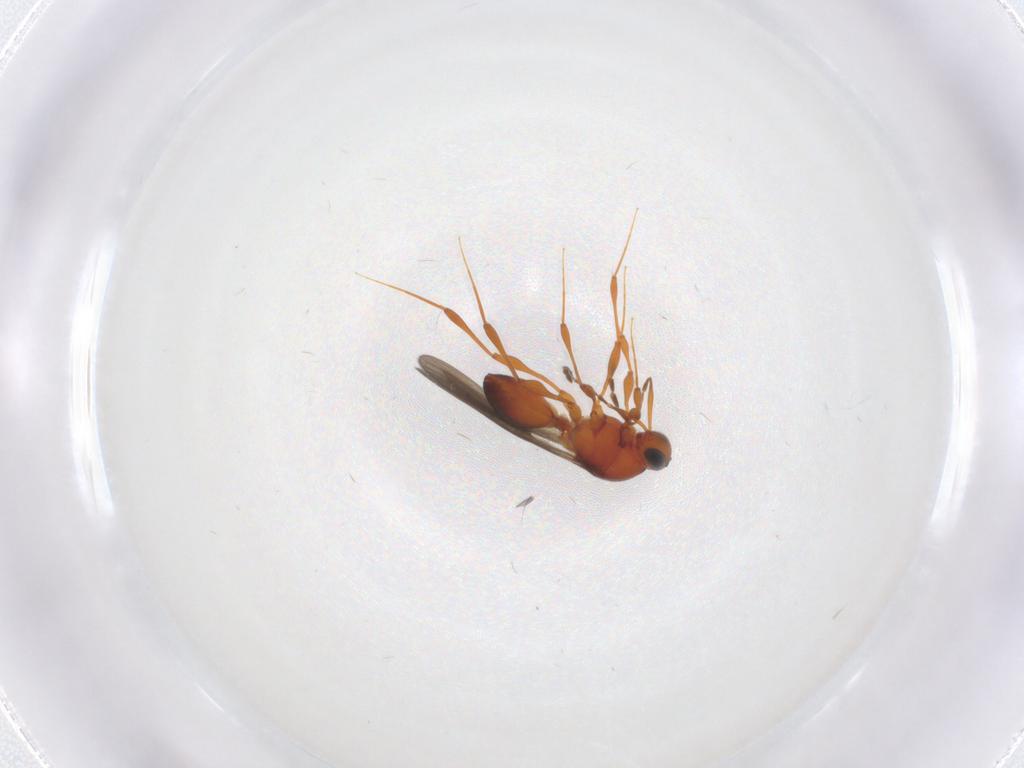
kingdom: Animalia
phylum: Arthropoda
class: Insecta
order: Hymenoptera
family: Platygastridae
